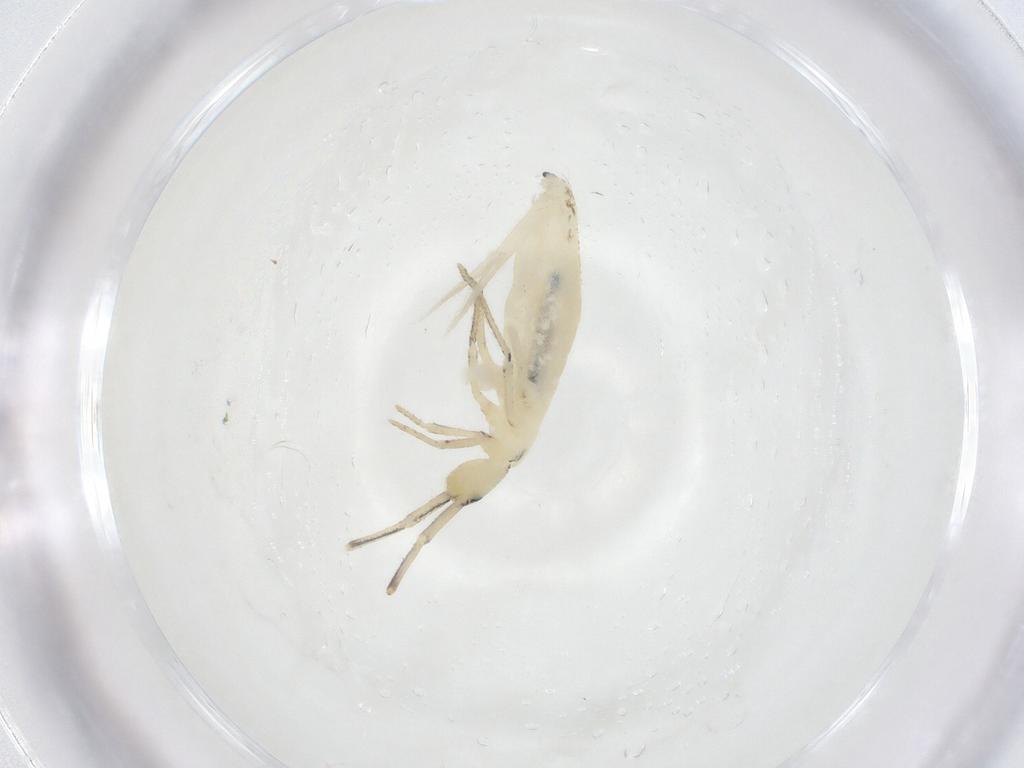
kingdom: Animalia
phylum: Arthropoda
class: Collembola
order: Entomobryomorpha
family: Entomobryidae
